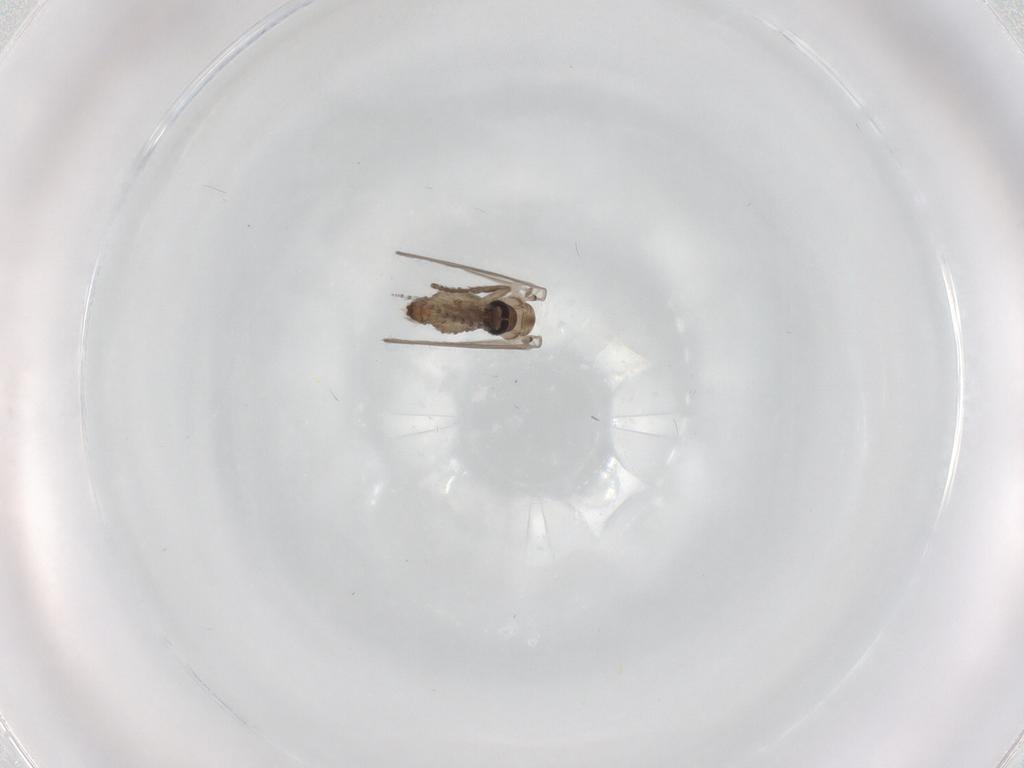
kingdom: Animalia
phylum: Arthropoda
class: Insecta
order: Diptera
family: Psychodidae
